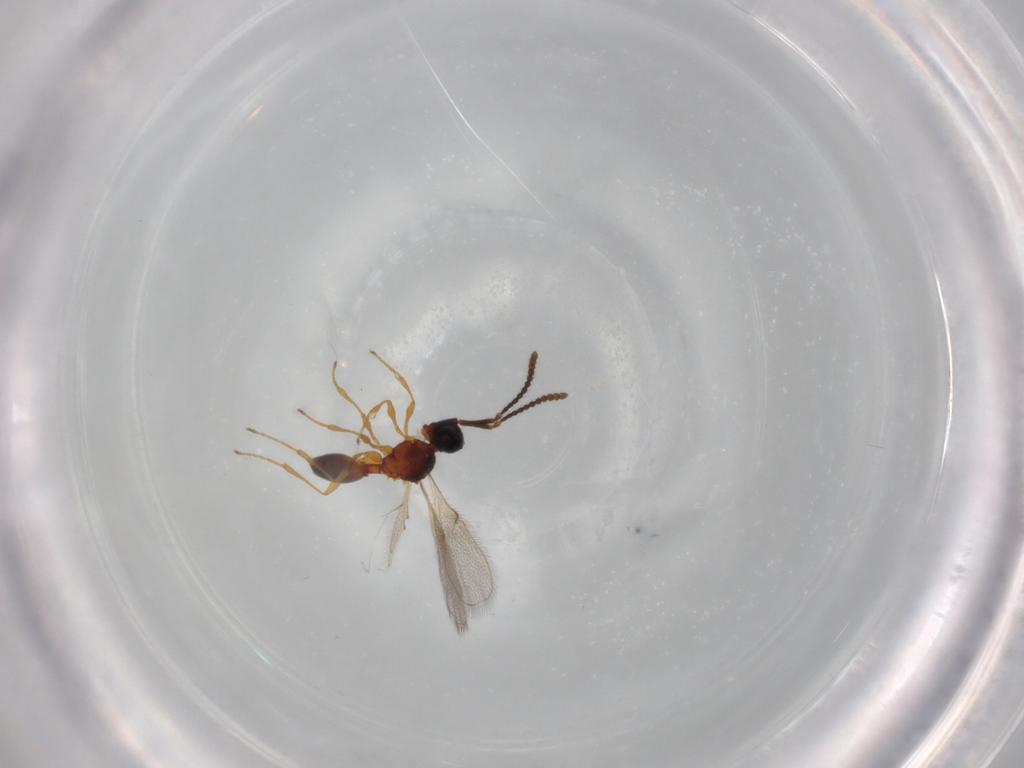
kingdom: Animalia
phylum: Arthropoda
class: Insecta
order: Hymenoptera
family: Diapriidae
